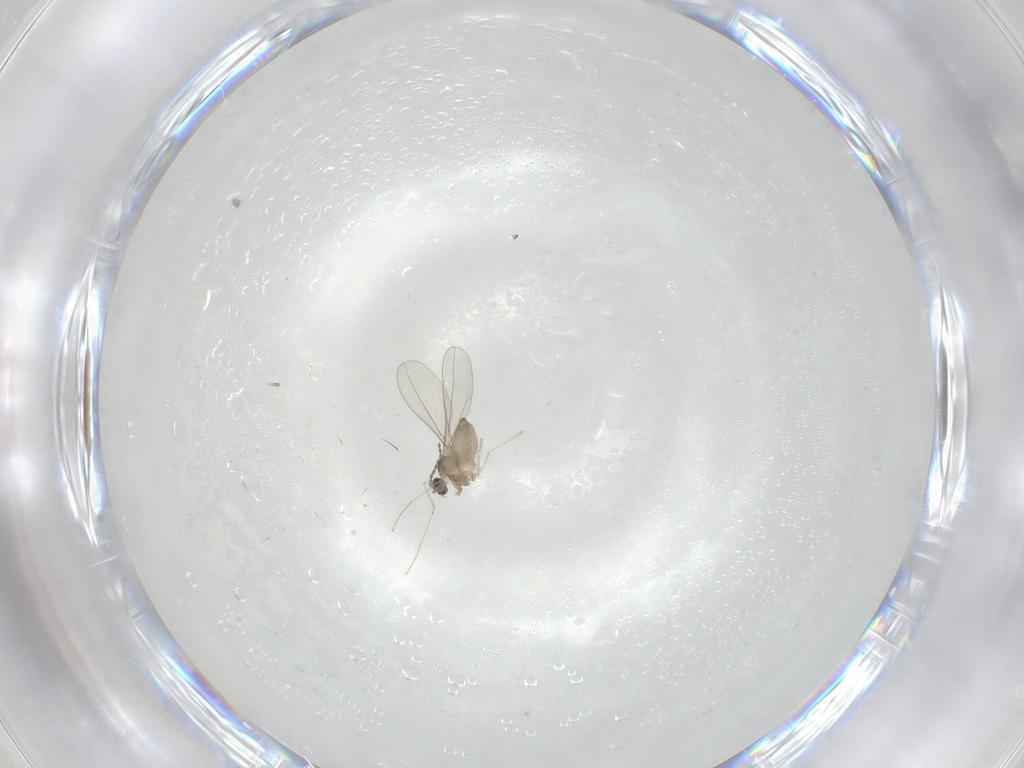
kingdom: Animalia
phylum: Arthropoda
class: Insecta
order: Diptera
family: Cecidomyiidae
